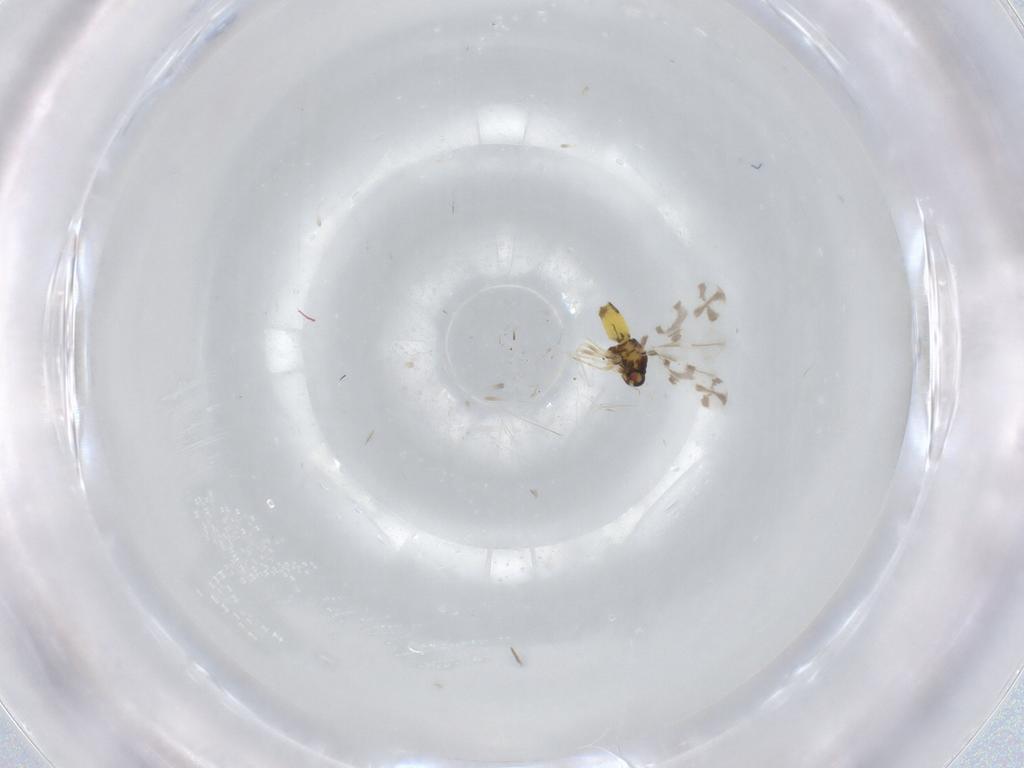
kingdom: Animalia
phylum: Arthropoda
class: Insecta
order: Hemiptera
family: Aleyrodidae
